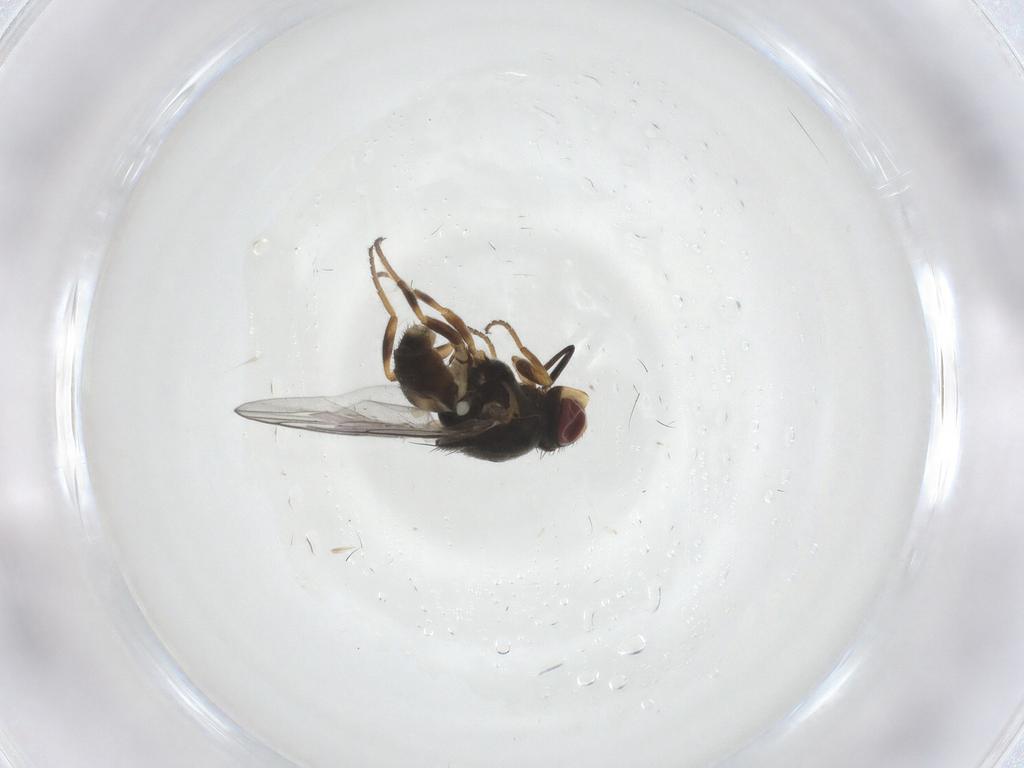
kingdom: Animalia
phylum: Arthropoda
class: Insecta
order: Diptera
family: Chloropidae
